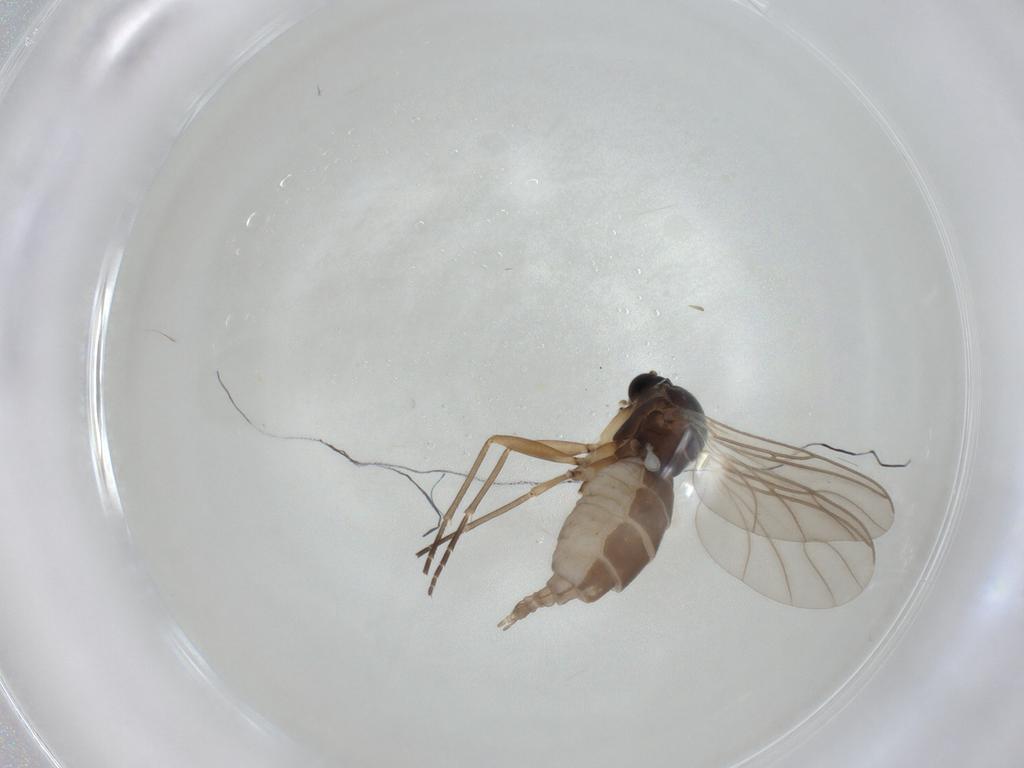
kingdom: Animalia
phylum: Arthropoda
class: Insecta
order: Diptera
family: Sciaridae
